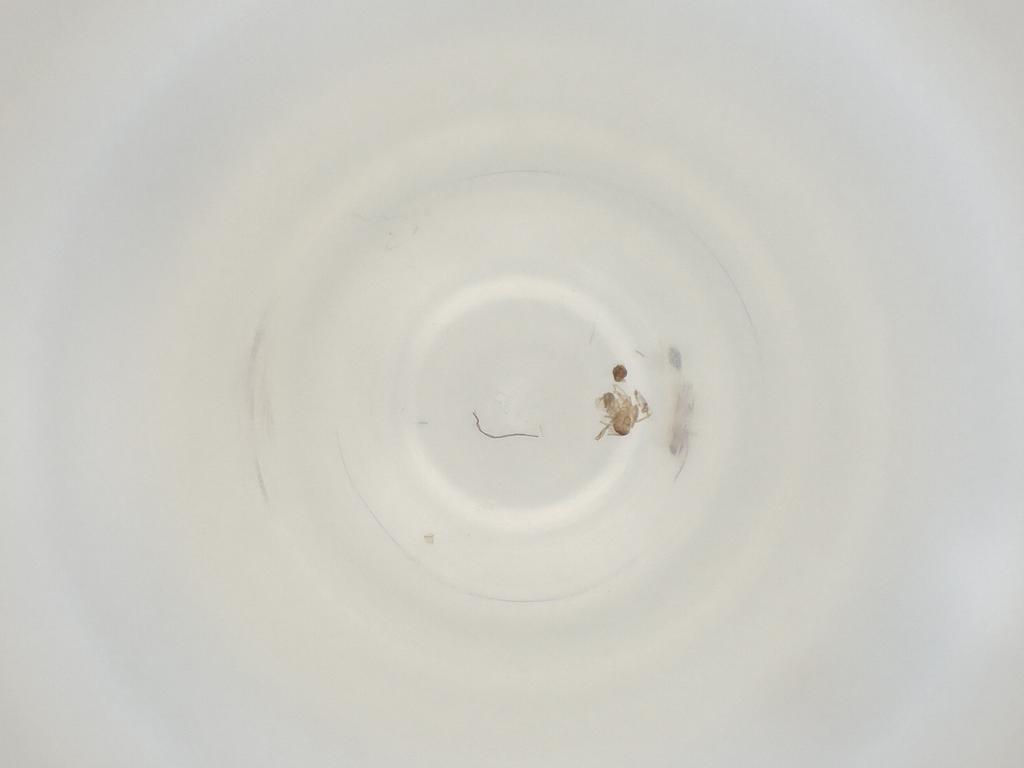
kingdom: Animalia
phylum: Arthropoda
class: Insecta
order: Diptera
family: Cecidomyiidae
